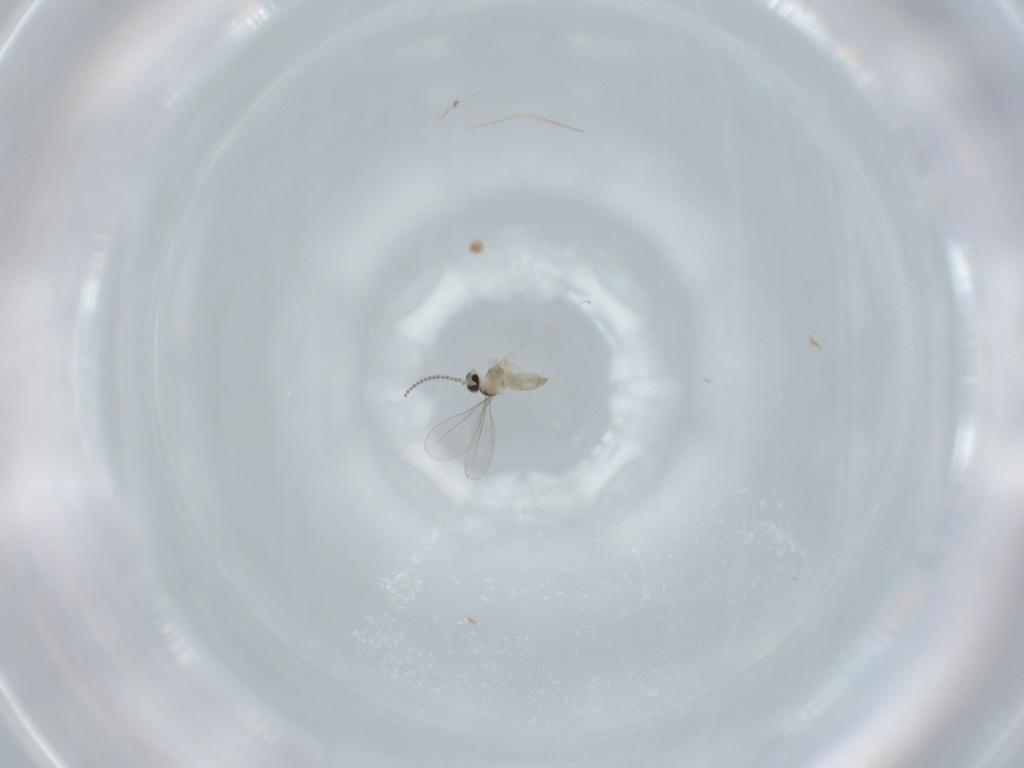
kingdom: Animalia
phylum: Arthropoda
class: Insecta
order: Diptera
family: Cecidomyiidae
